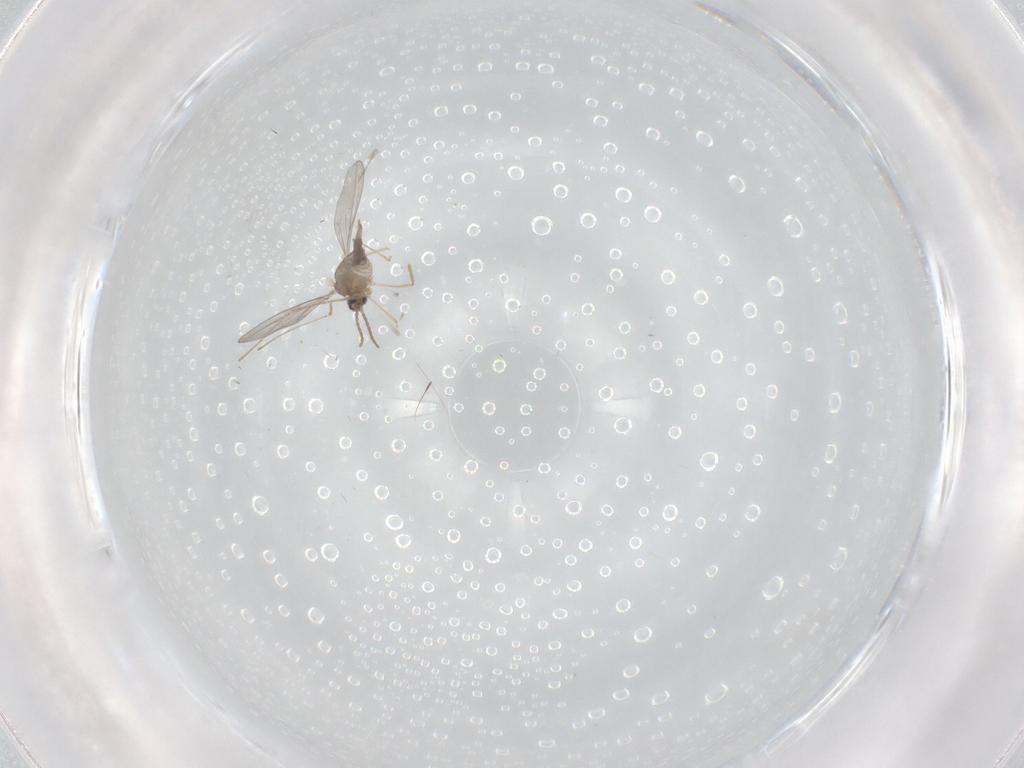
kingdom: Animalia
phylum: Arthropoda
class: Insecta
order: Diptera
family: Cecidomyiidae
